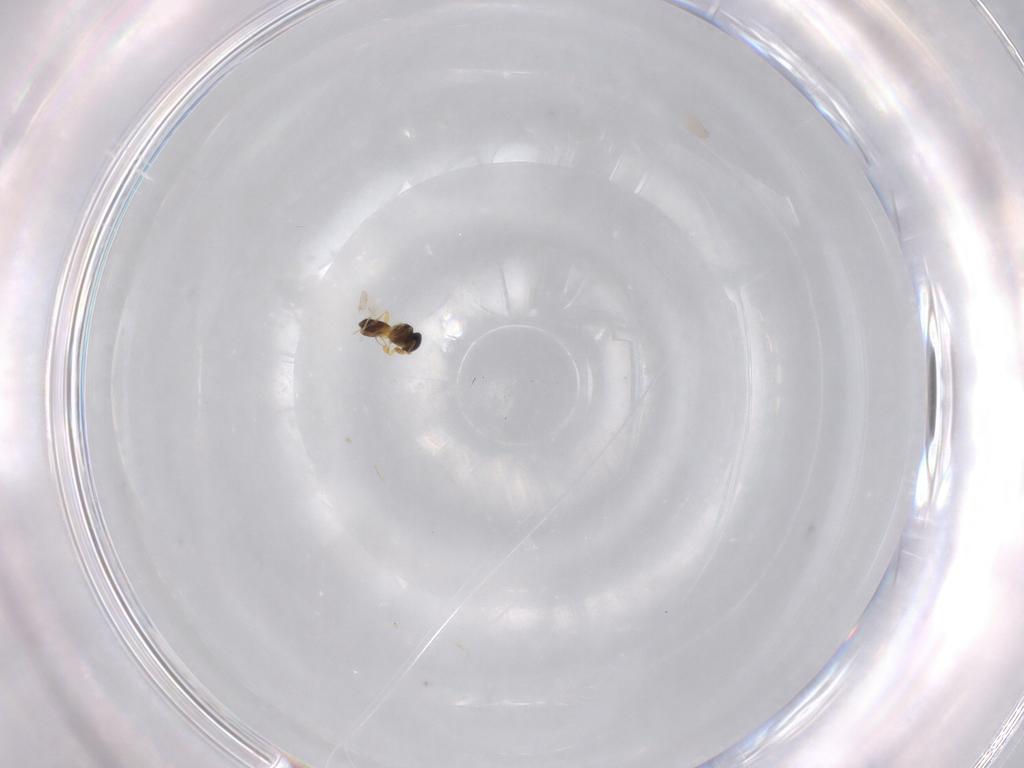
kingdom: Animalia
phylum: Arthropoda
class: Insecta
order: Hymenoptera
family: Platygastridae
